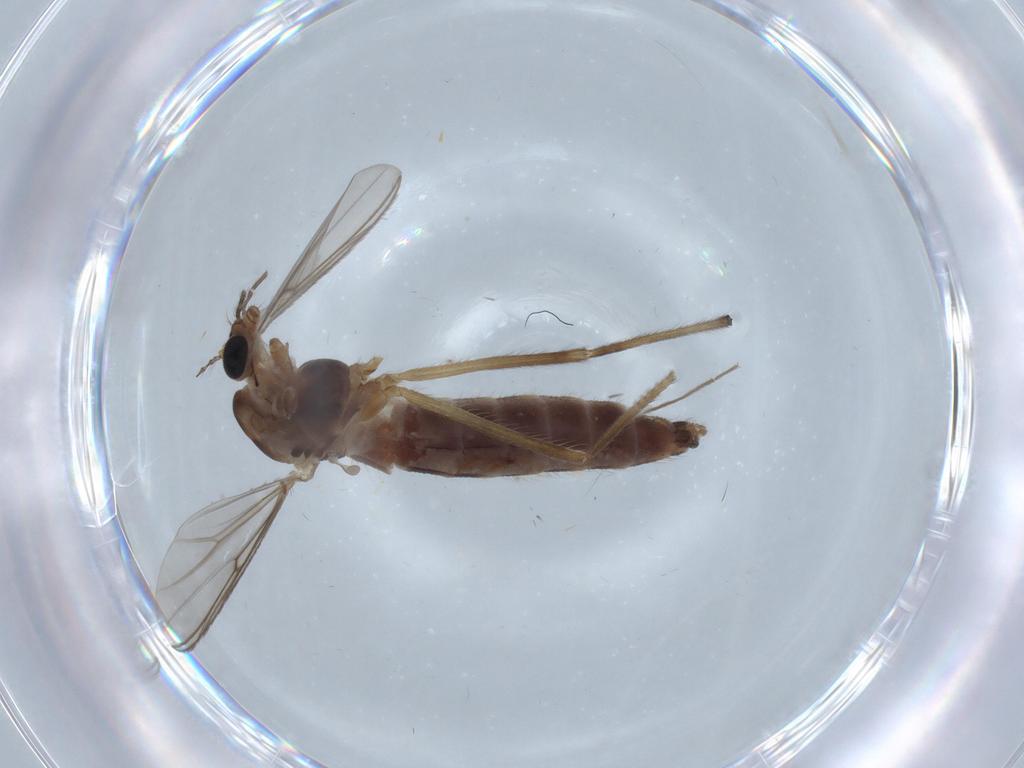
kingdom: Animalia
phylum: Arthropoda
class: Insecta
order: Diptera
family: Chironomidae
